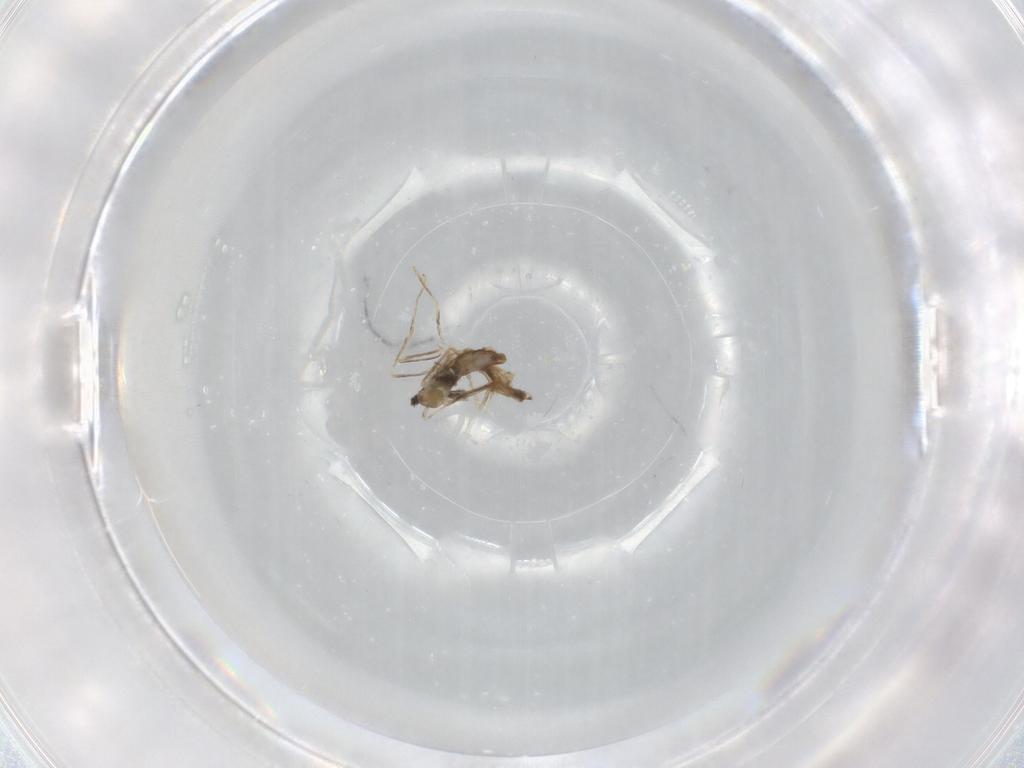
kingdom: Animalia
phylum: Arthropoda
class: Insecta
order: Diptera
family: Cecidomyiidae
